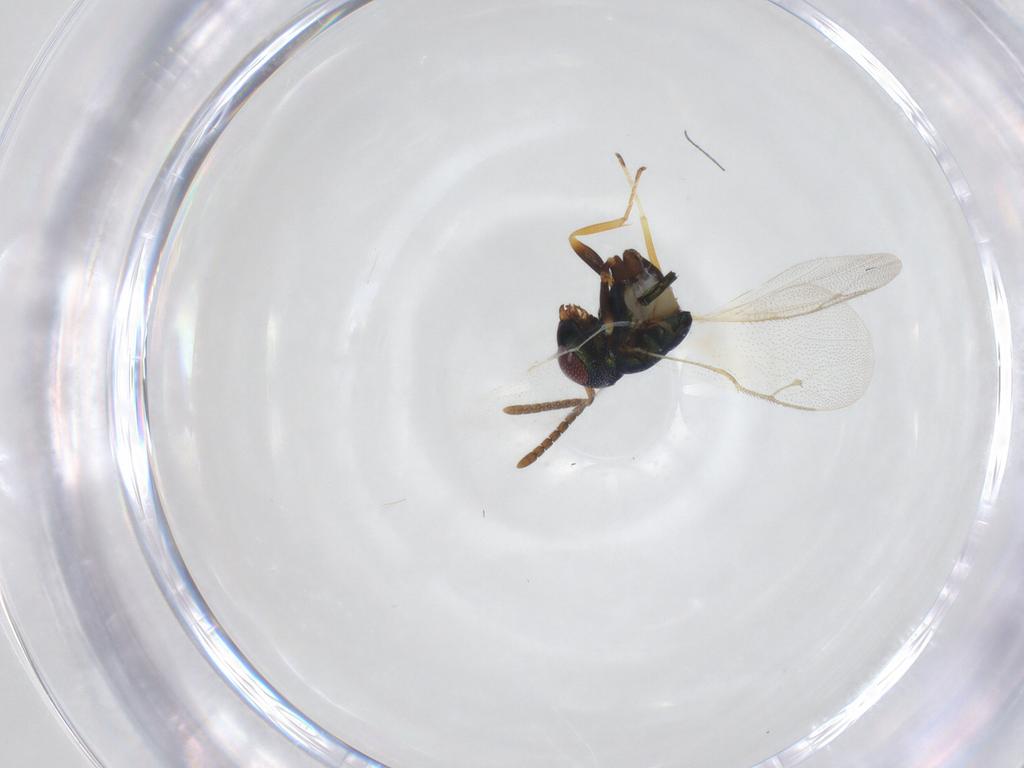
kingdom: Animalia
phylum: Arthropoda
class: Insecta
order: Hymenoptera
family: Pteromalidae
